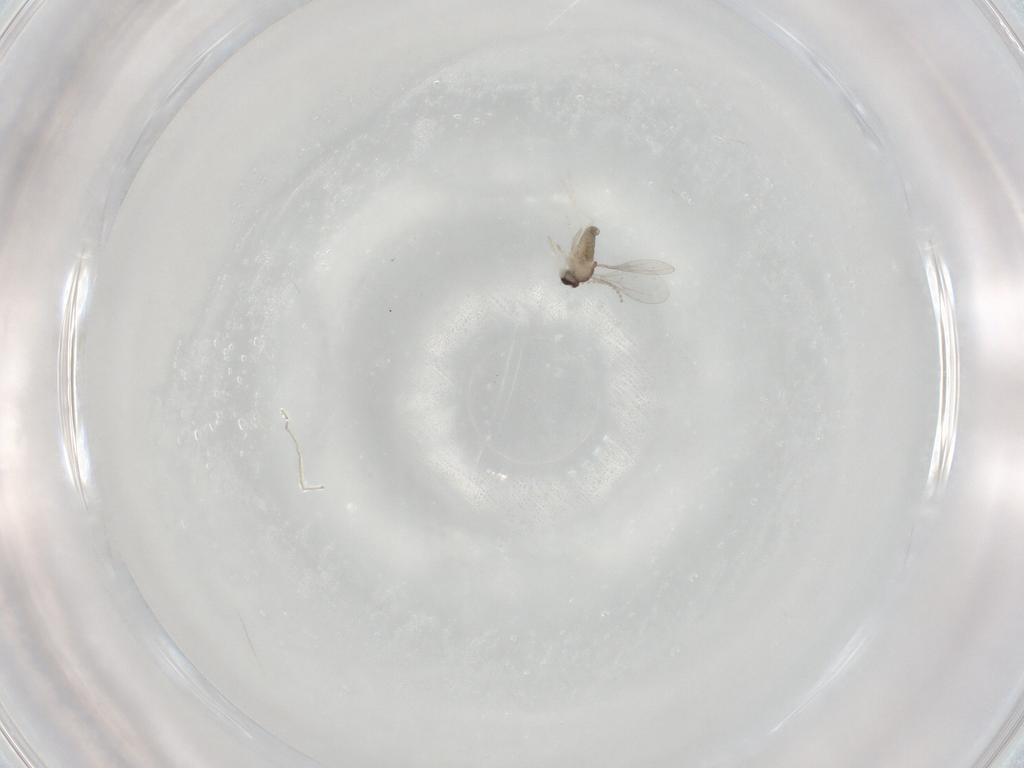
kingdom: Animalia
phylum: Arthropoda
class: Insecta
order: Diptera
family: Cecidomyiidae
